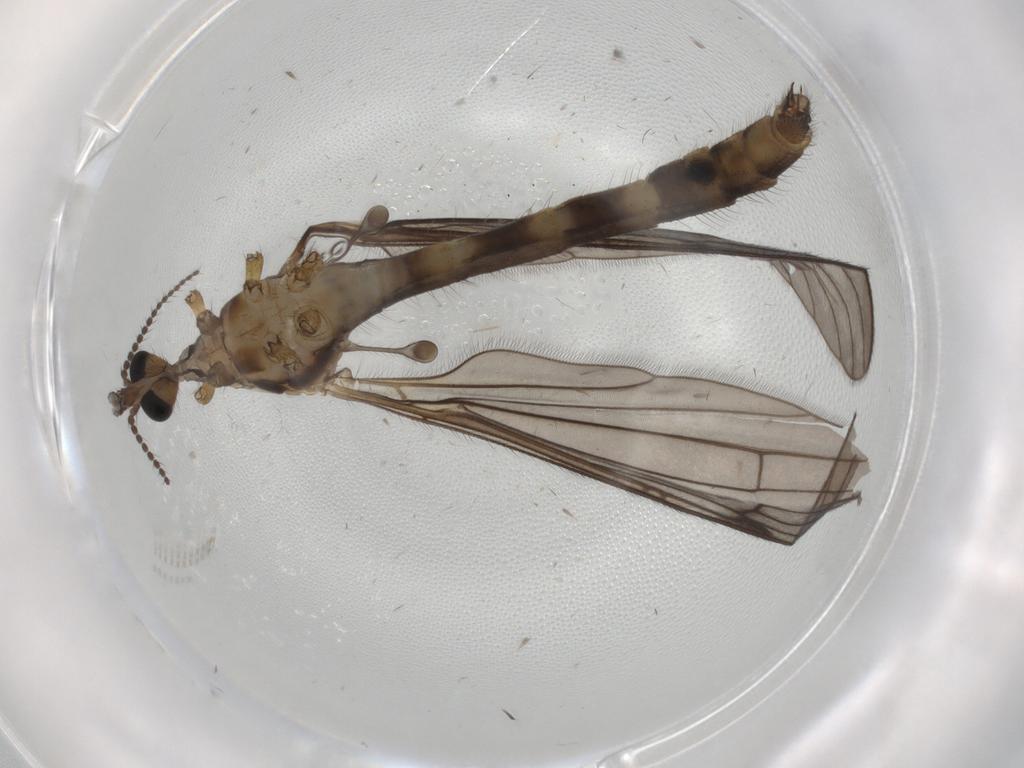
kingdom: Animalia
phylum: Arthropoda
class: Insecta
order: Diptera
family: Limoniidae
